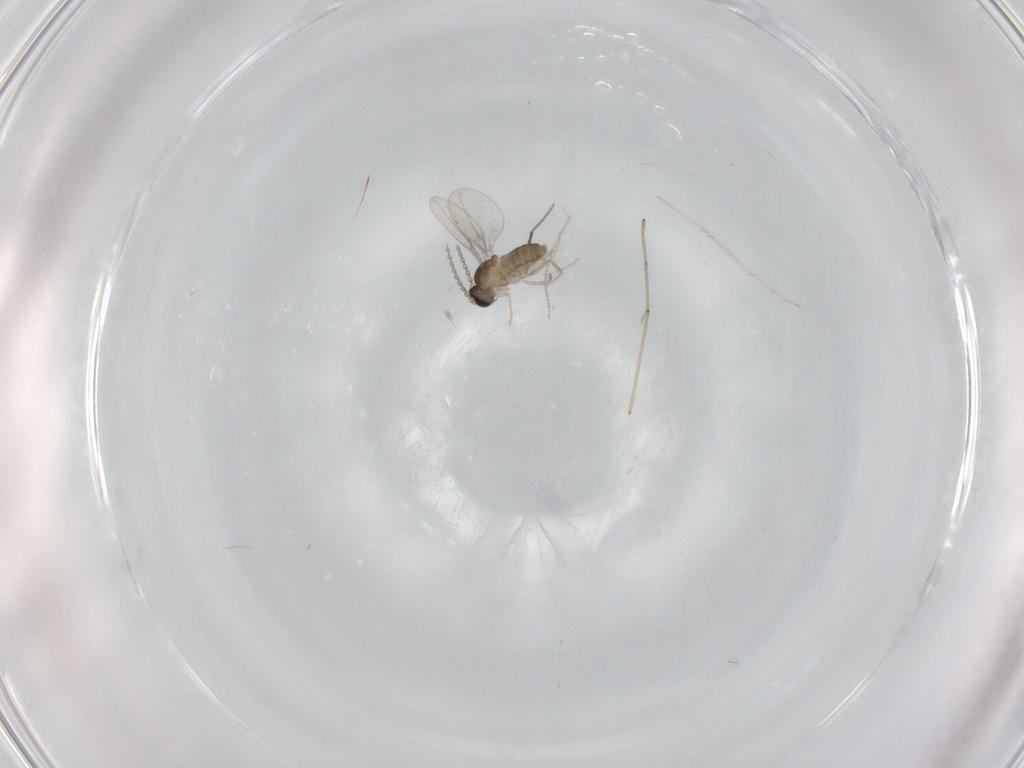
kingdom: Animalia
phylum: Arthropoda
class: Insecta
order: Diptera
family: Cecidomyiidae
